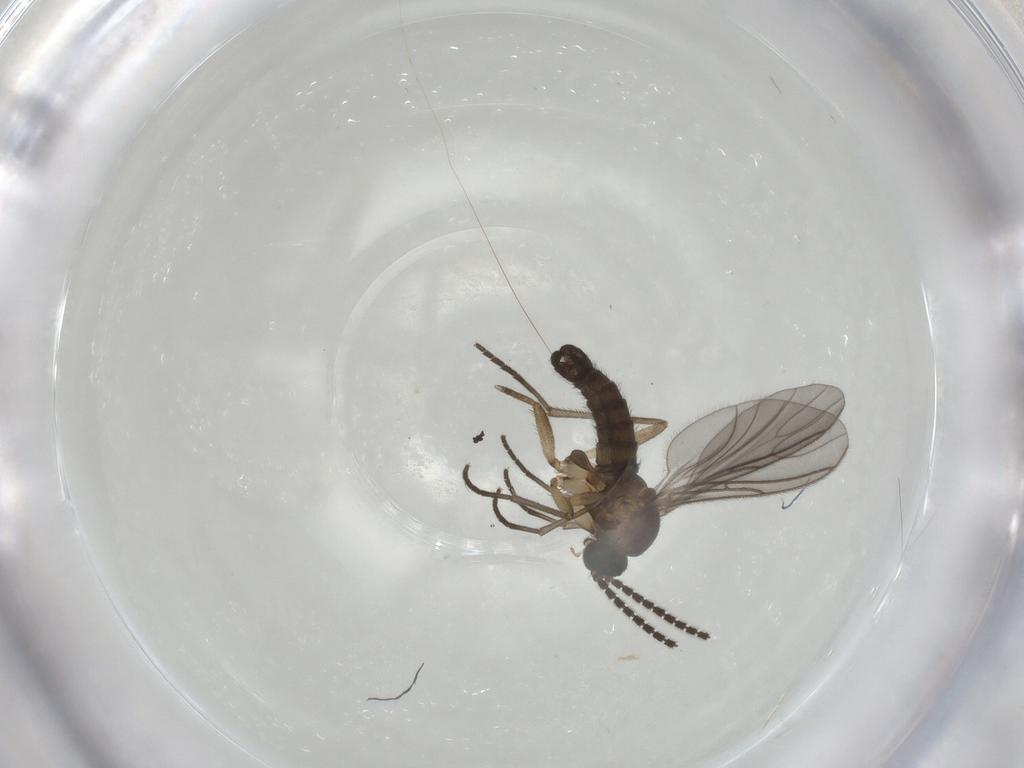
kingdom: Animalia
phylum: Arthropoda
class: Insecta
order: Diptera
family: Sciaridae
